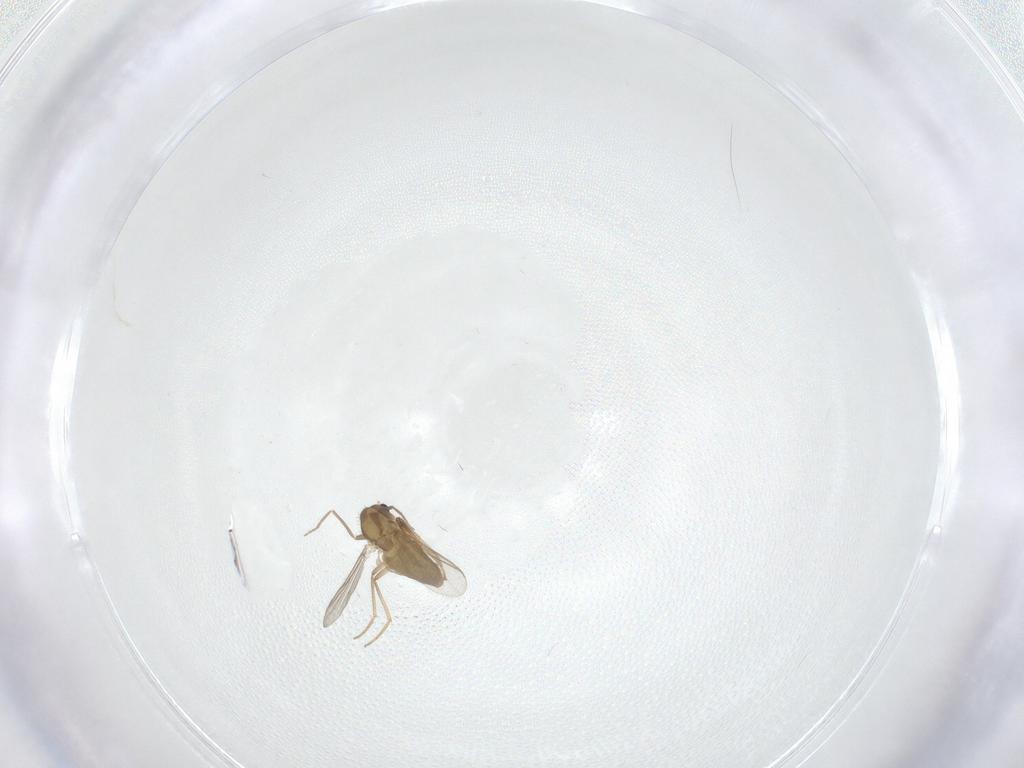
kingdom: Animalia
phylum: Arthropoda
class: Insecta
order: Diptera
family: Chironomidae
